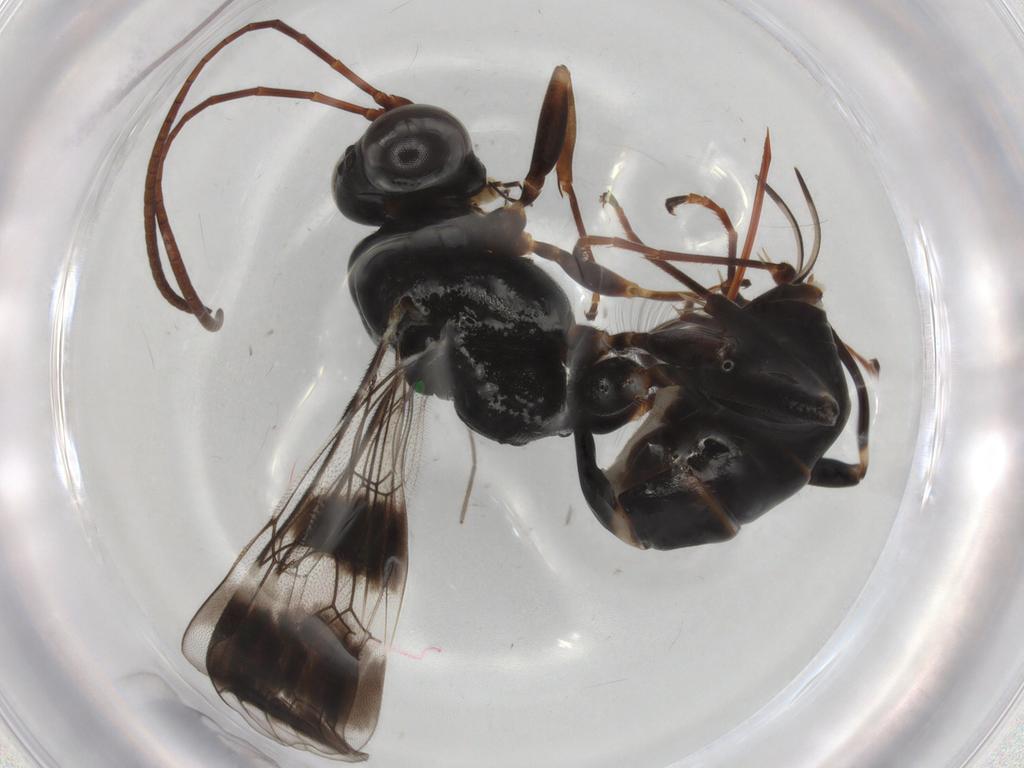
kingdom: Animalia
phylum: Arthropoda
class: Insecta
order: Hymenoptera
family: Ichneumonidae
